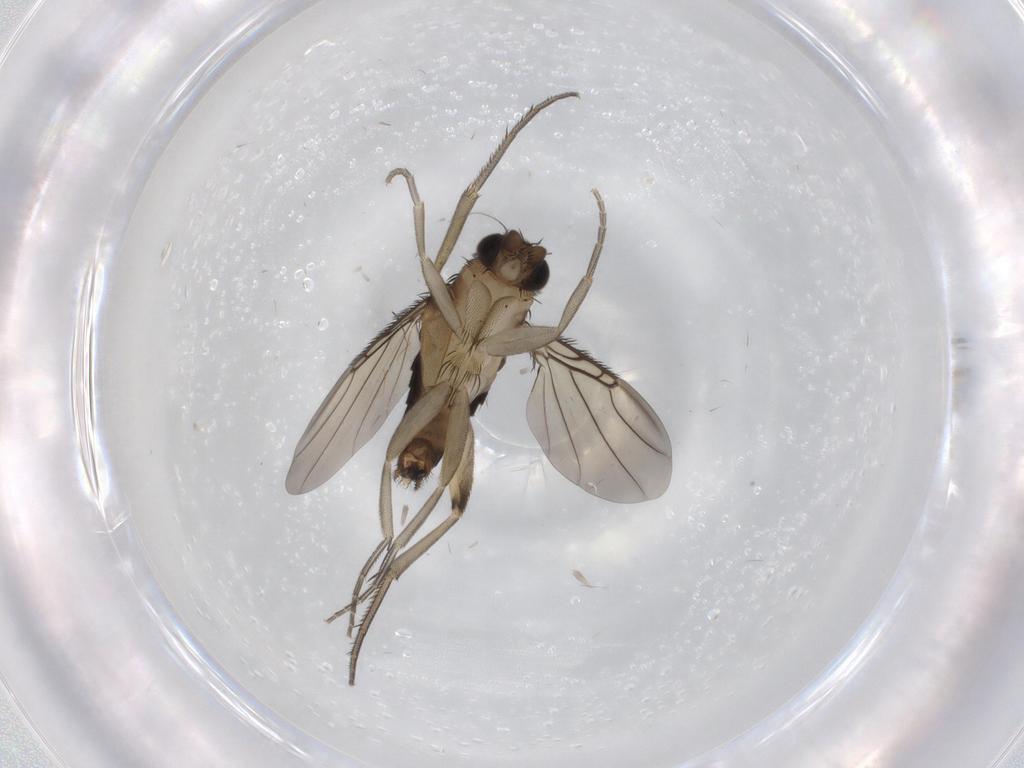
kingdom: Animalia
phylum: Arthropoda
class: Insecta
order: Diptera
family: Phoridae
